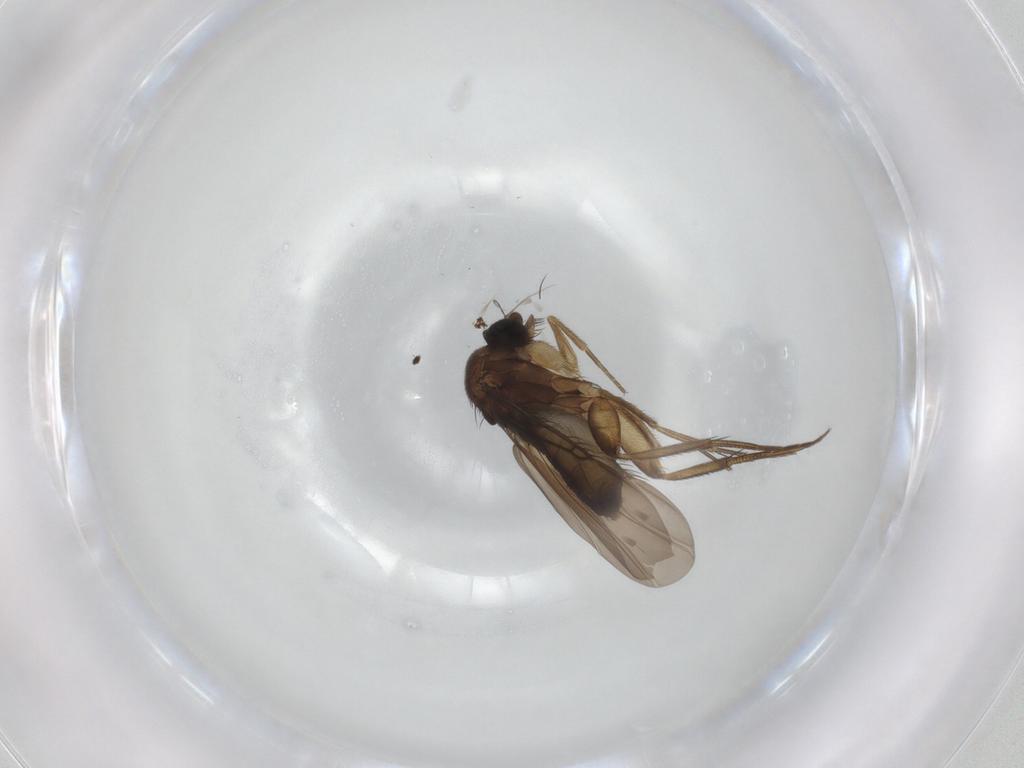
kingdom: Animalia
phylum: Arthropoda
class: Insecta
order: Diptera
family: Phoridae
